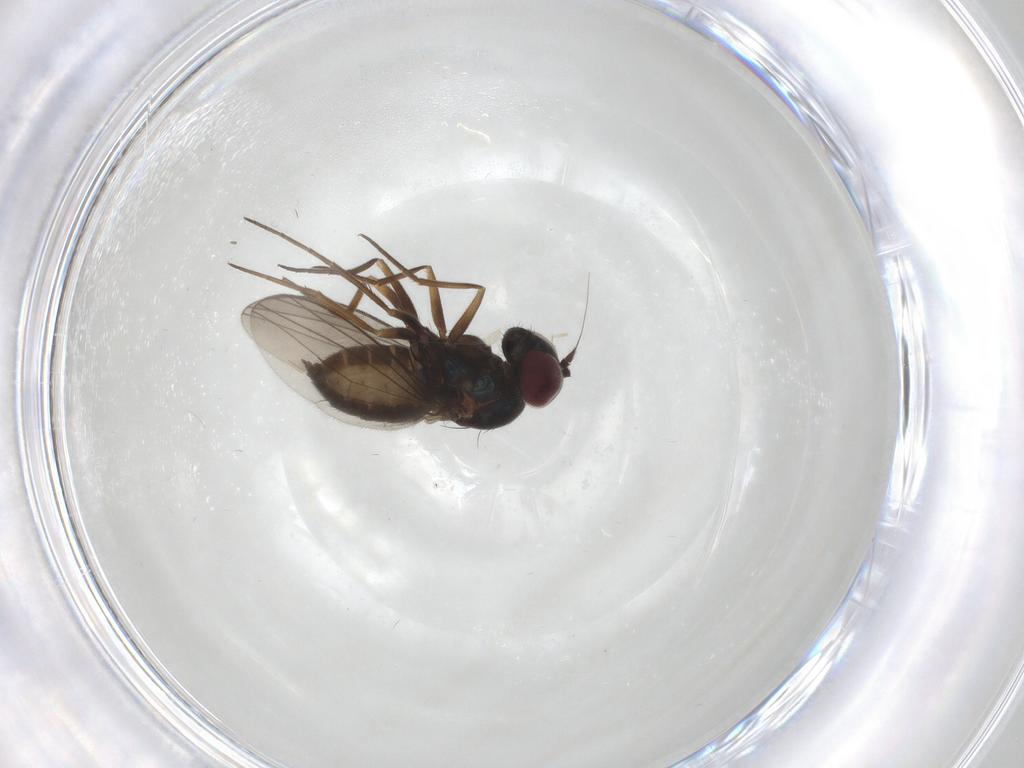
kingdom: Animalia
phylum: Arthropoda
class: Insecta
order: Diptera
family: Dolichopodidae
